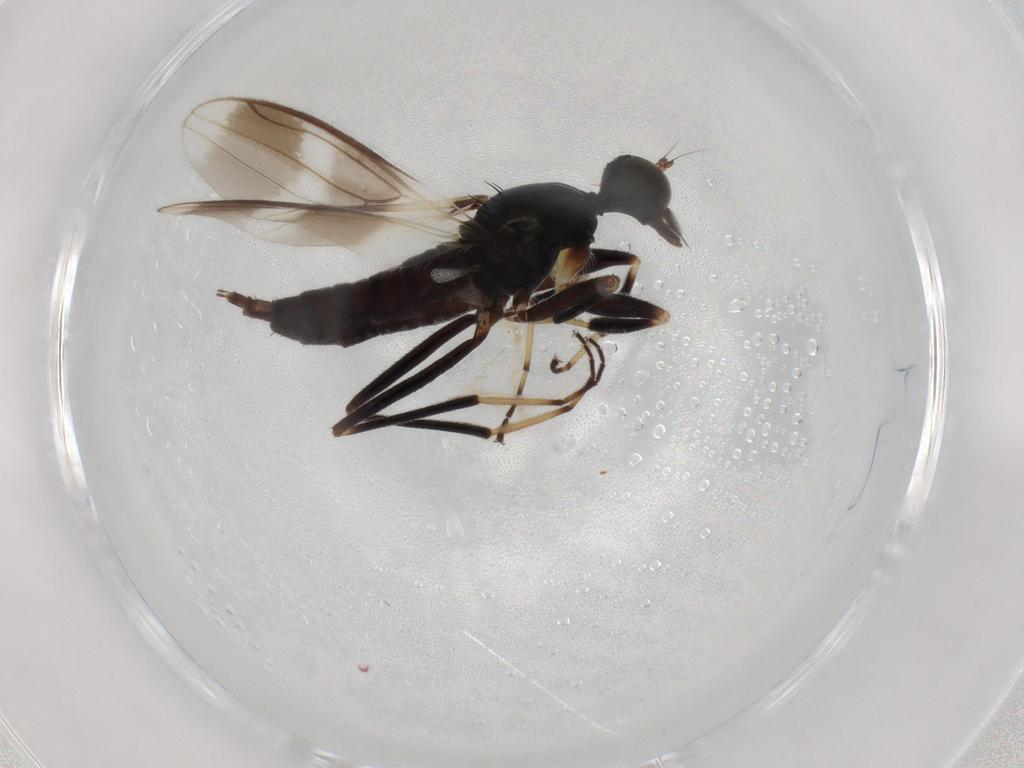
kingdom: Animalia
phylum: Arthropoda
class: Insecta
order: Diptera
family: Hybotidae
